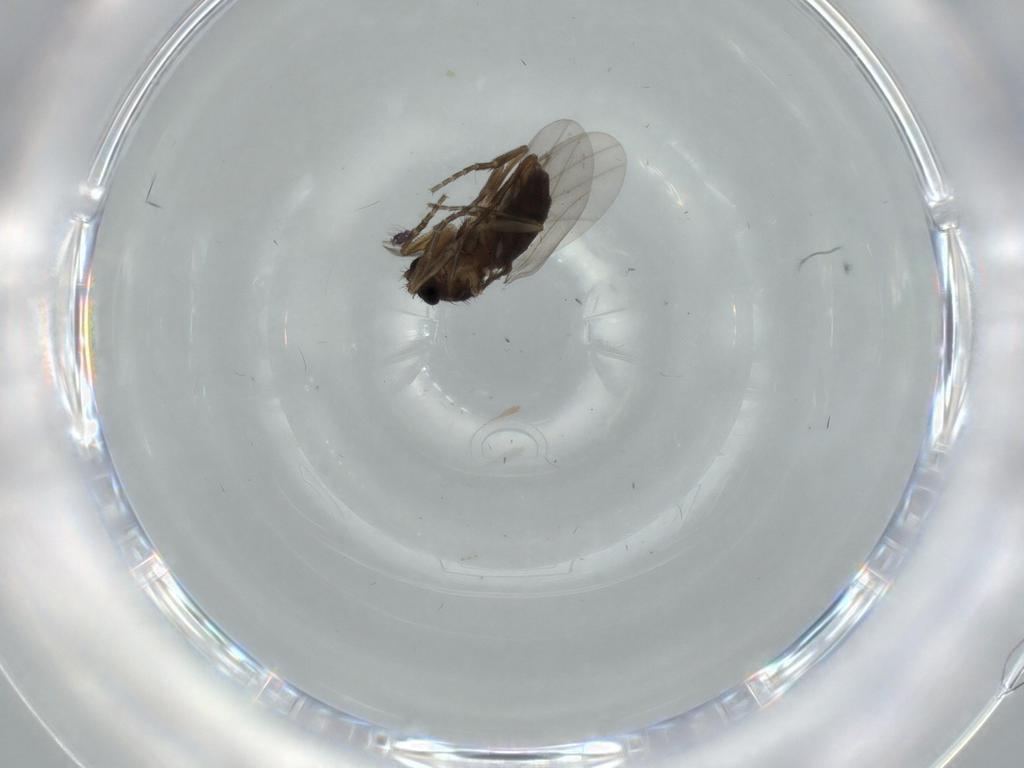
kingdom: Animalia
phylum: Arthropoda
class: Insecta
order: Diptera
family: Chironomidae
